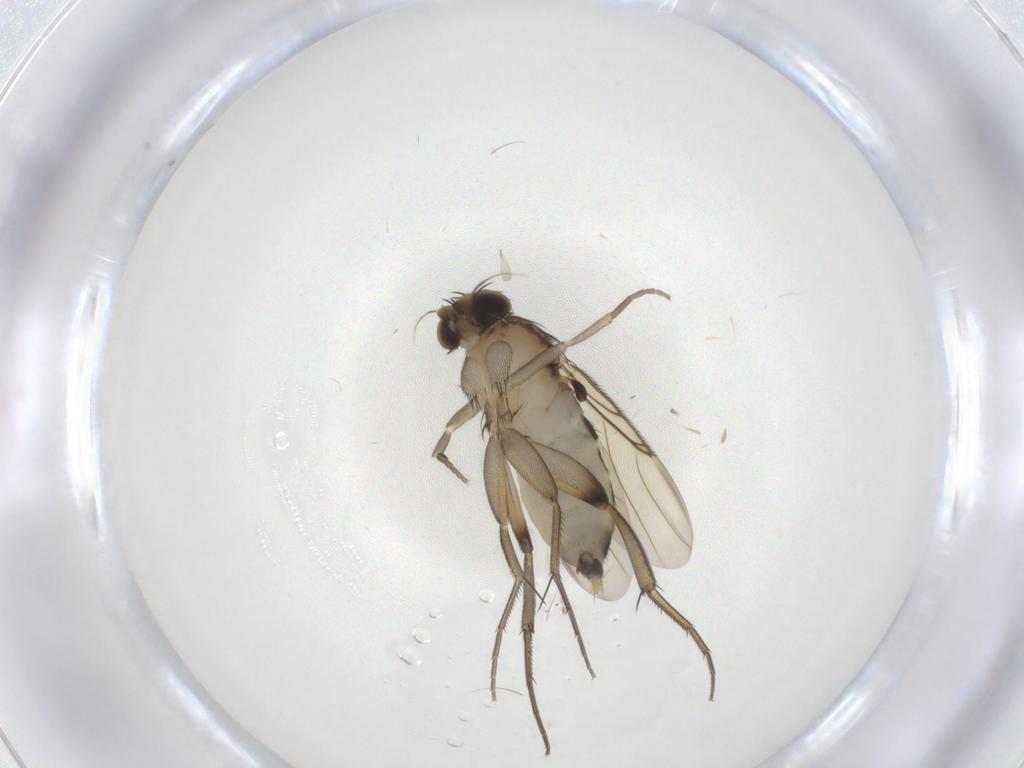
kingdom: Animalia
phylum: Arthropoda
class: Insecta
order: Diptera
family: Phoridae
